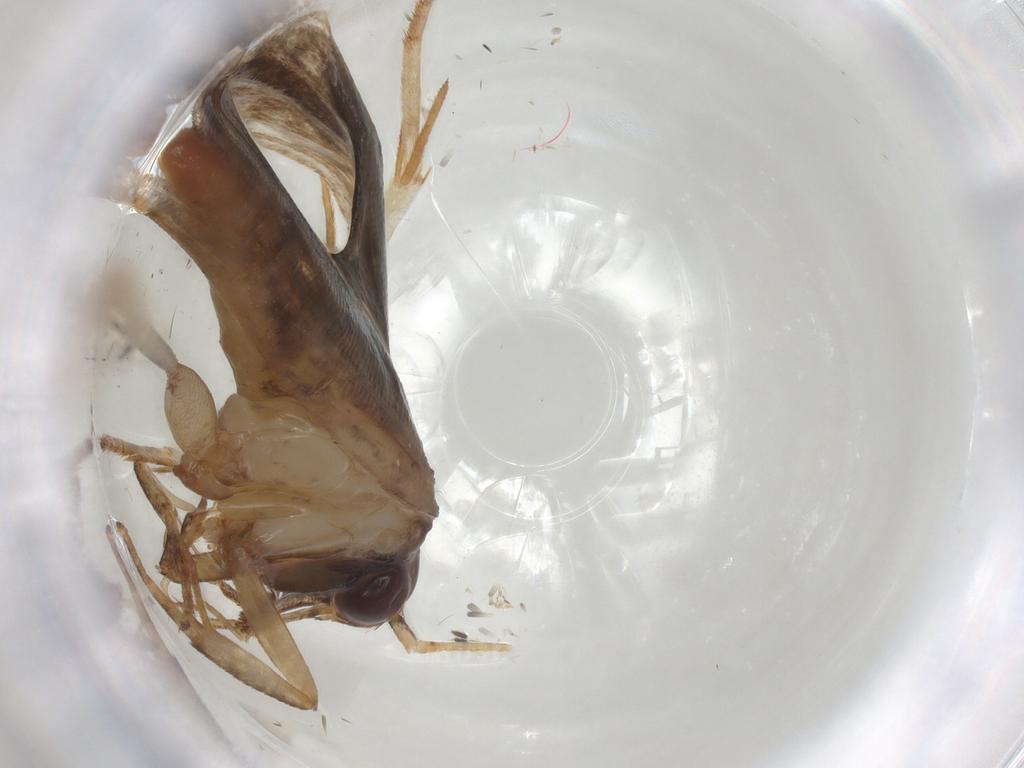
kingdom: Animalia
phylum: Arthropoda
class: Insecta
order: Lepidoptera
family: Gelechiidae
